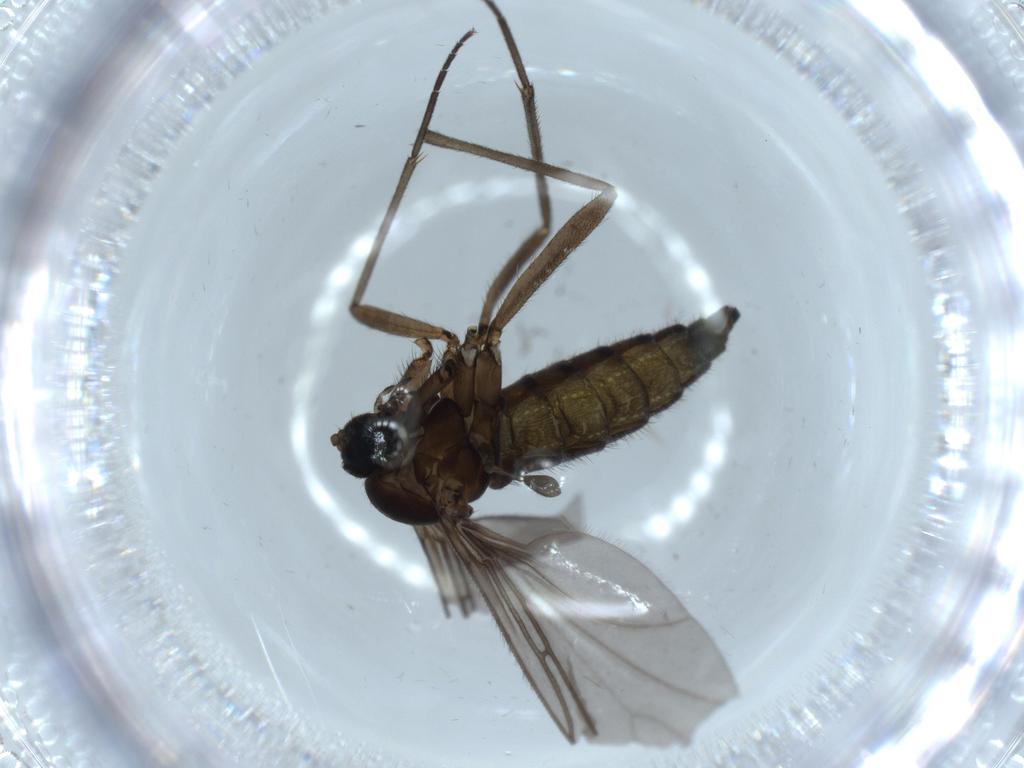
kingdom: Animalia
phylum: Arthropoda
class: Insecta
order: Diptera
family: Sciaridae
